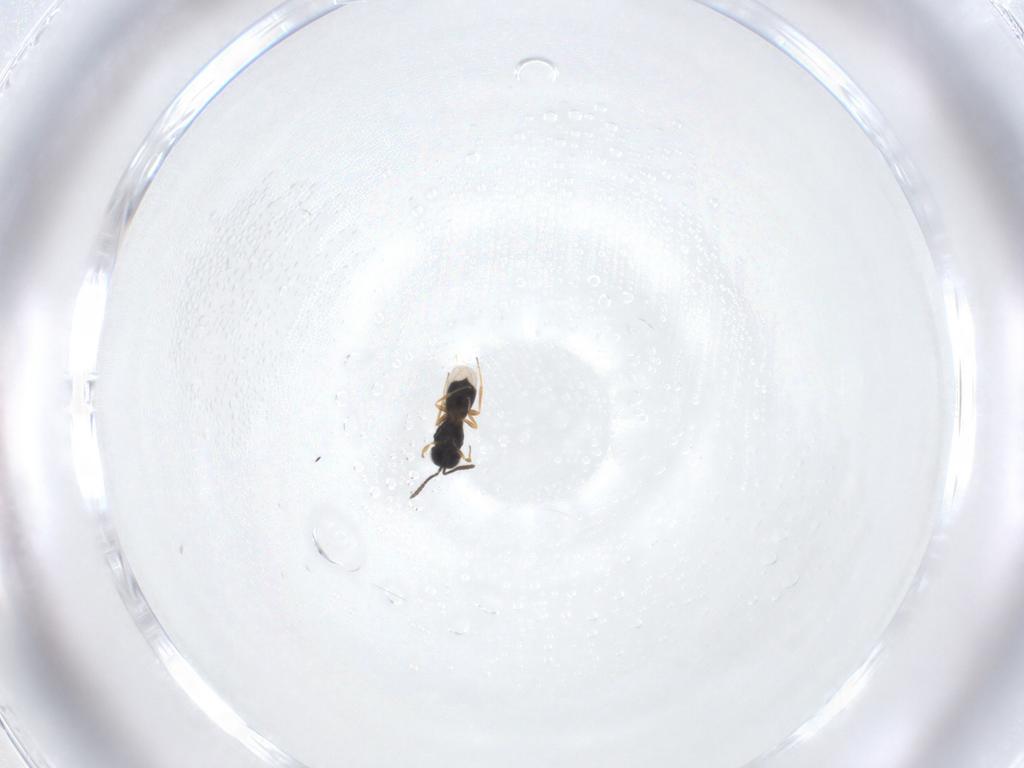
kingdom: Animalia
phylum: Arthropoda
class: Insecta
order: Hymenoptera
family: Scelionidae
